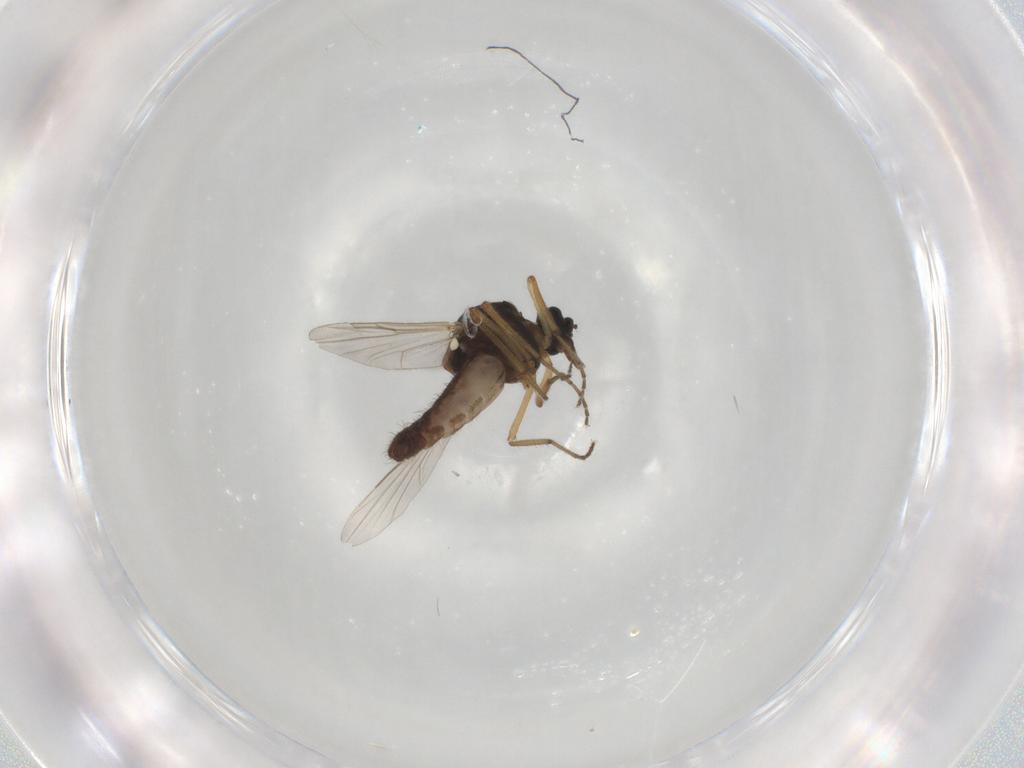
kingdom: Animalia
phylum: Arthropoda
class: Insecta
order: Diptera
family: Ceratopogonidae
